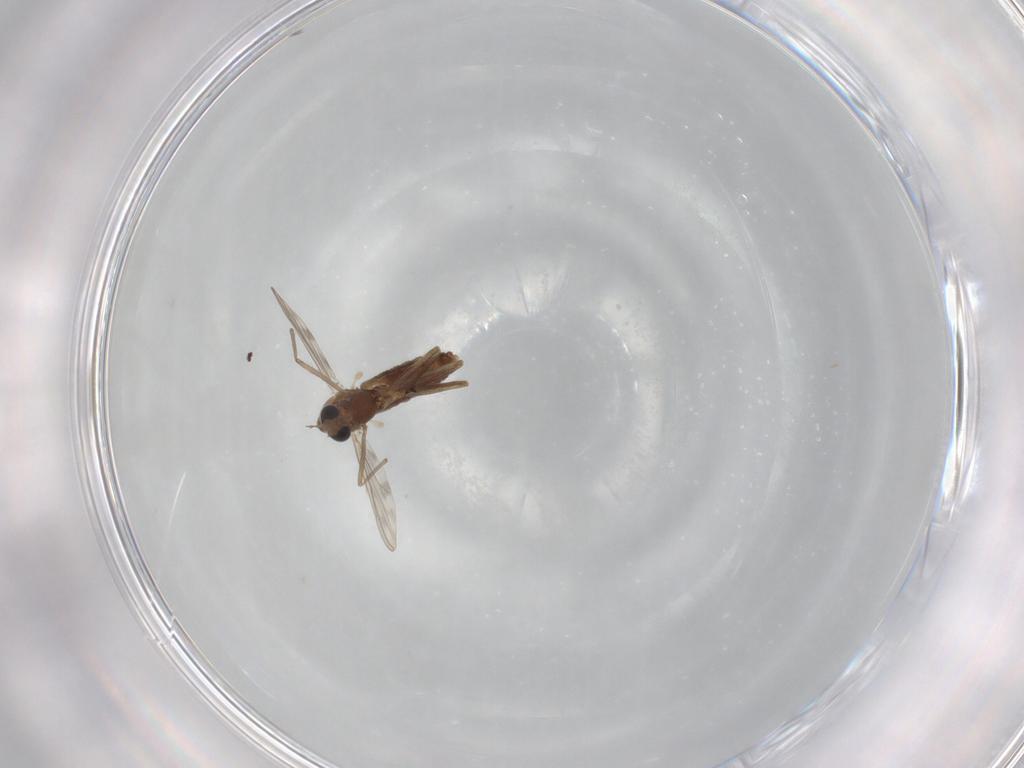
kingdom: Animalia
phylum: Arthropoda
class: Insecta
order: Diptera
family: Chironomidae
